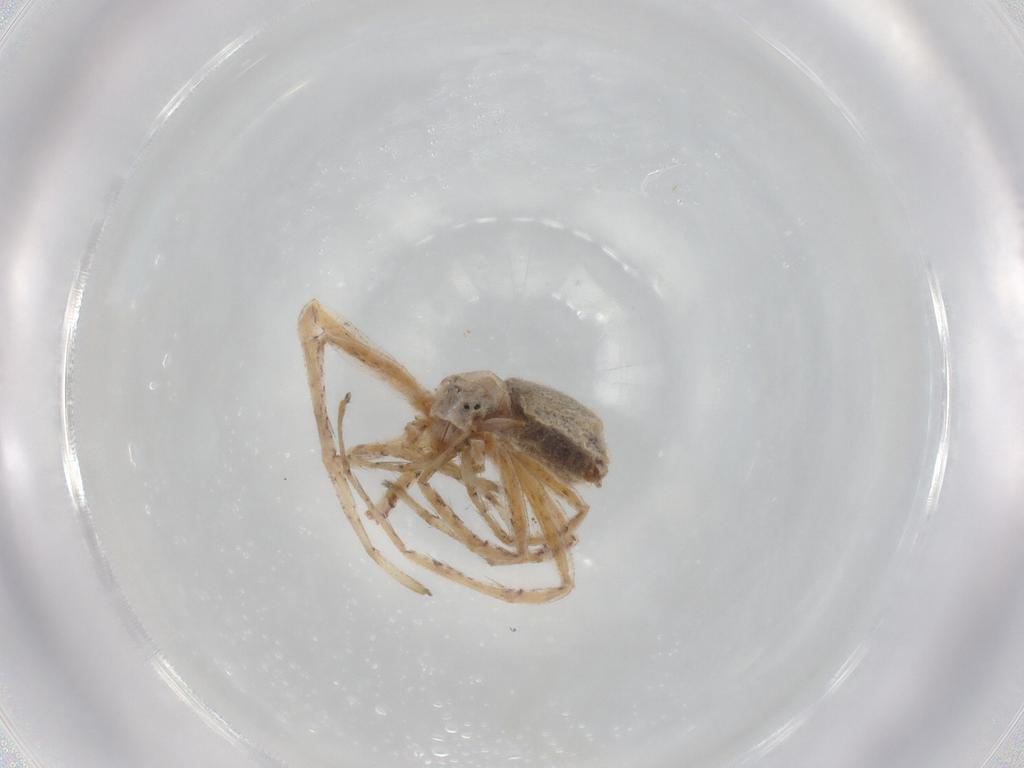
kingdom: Animalia
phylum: Arthropoda
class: Arachnida
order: Araneae
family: Philodromidae
